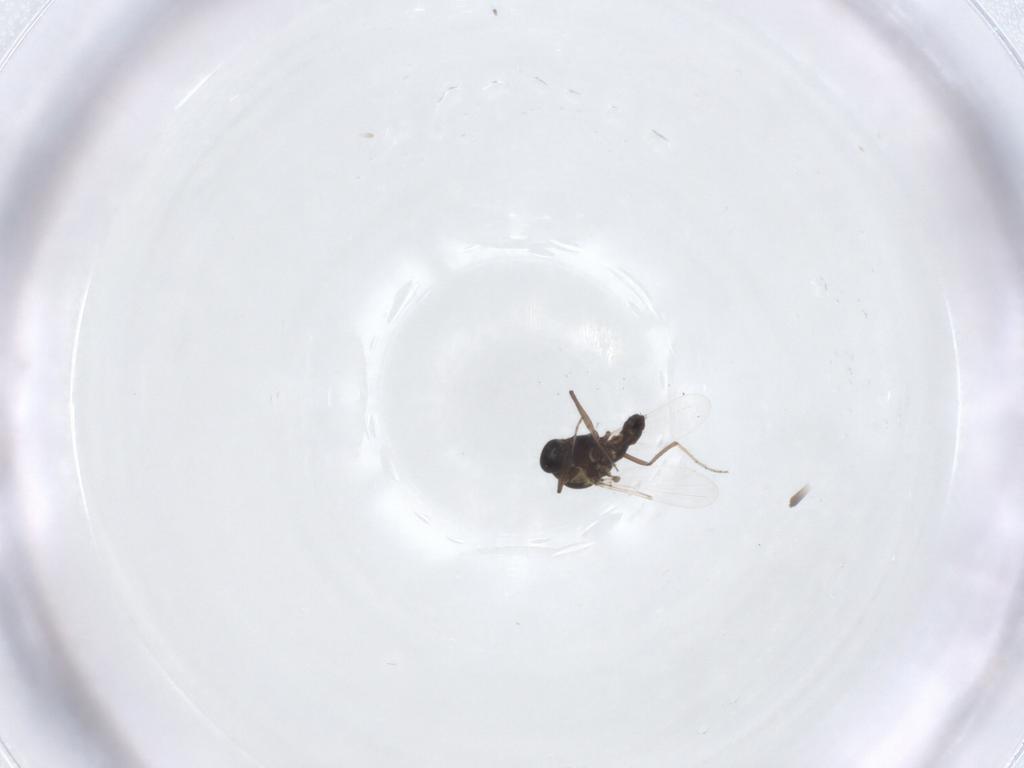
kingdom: Animalia
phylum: Arthropoda
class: Insecta
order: Diptera
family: Ceratopogonidae
